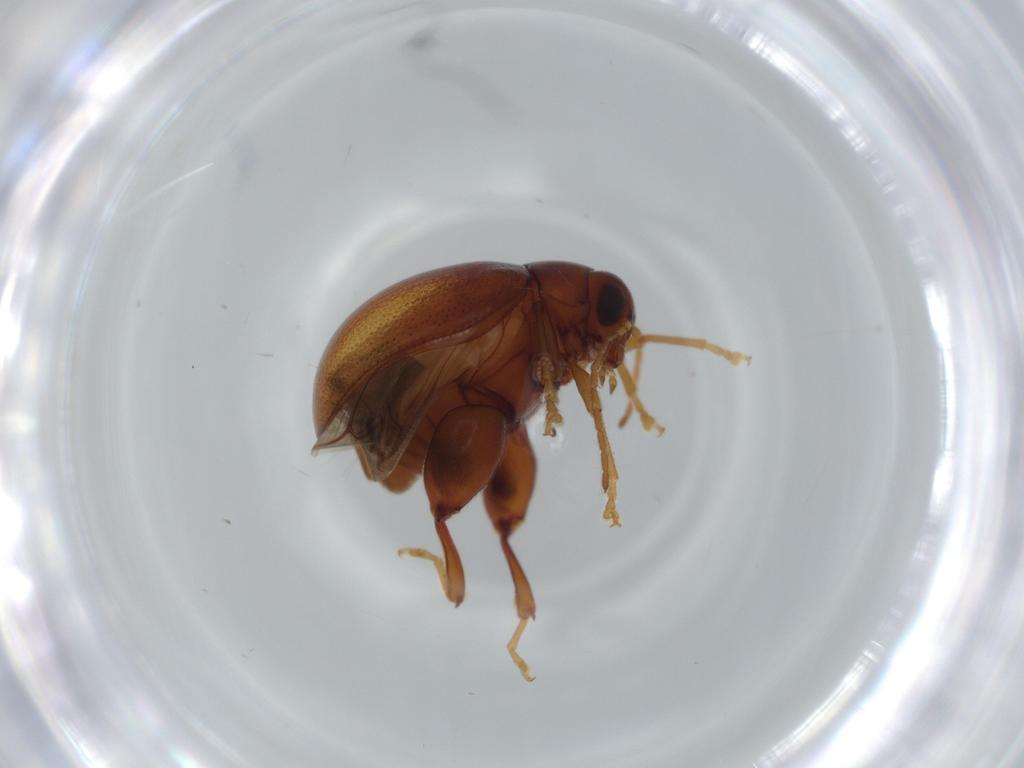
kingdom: Animalia
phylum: Arthropoda
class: Insecta
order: Coleoptera
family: Chrysomelidae
